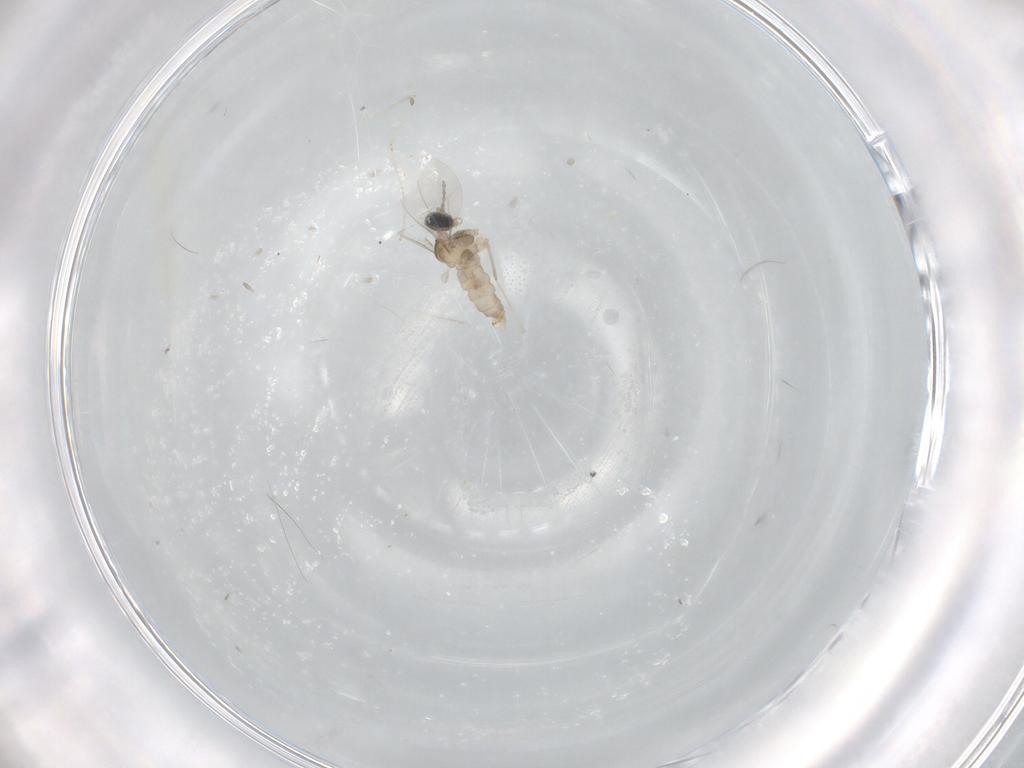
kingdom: Animalia
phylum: Arthropoda
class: Insecta
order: Diptera
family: Cecidomyiidae
